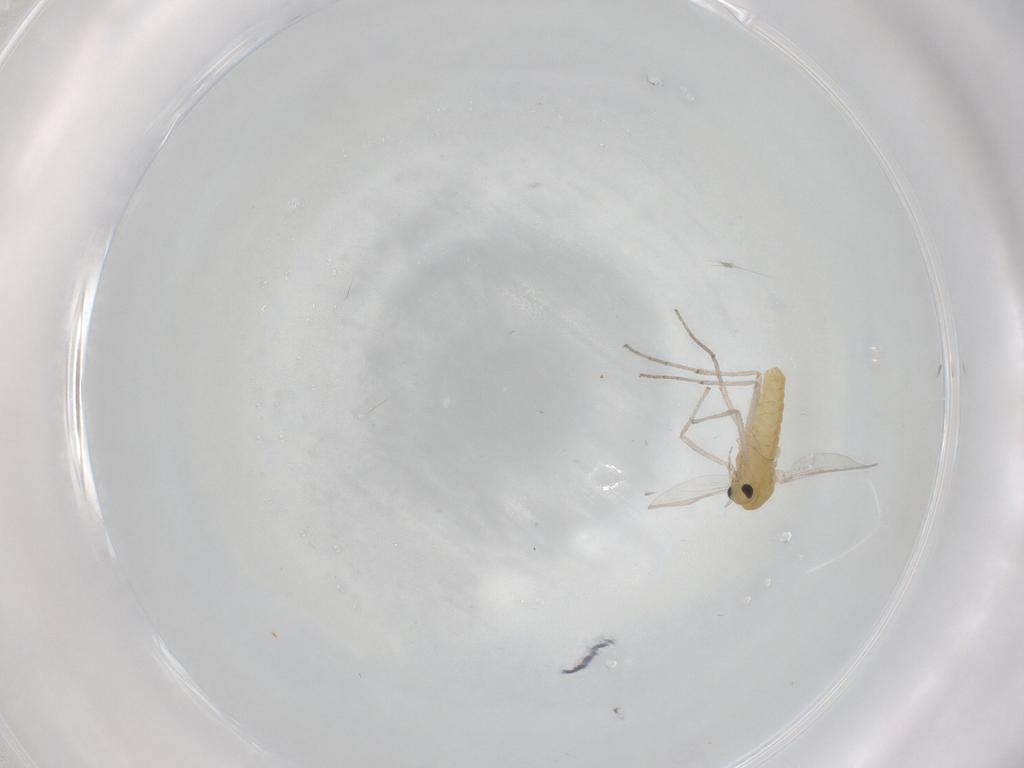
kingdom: Animalia
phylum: Arthropoda
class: Insecta
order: Diptera
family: Chironomidae
